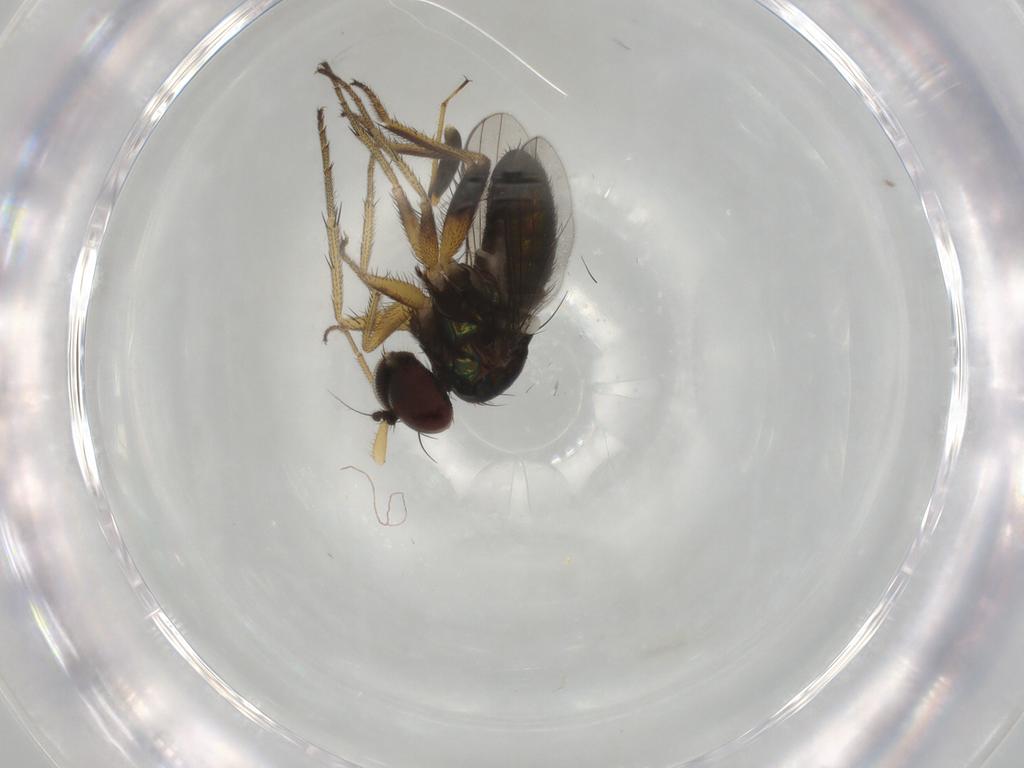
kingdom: Animalia
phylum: Arthropoda
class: Insecta
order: Diptera
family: Dolichopodidae
